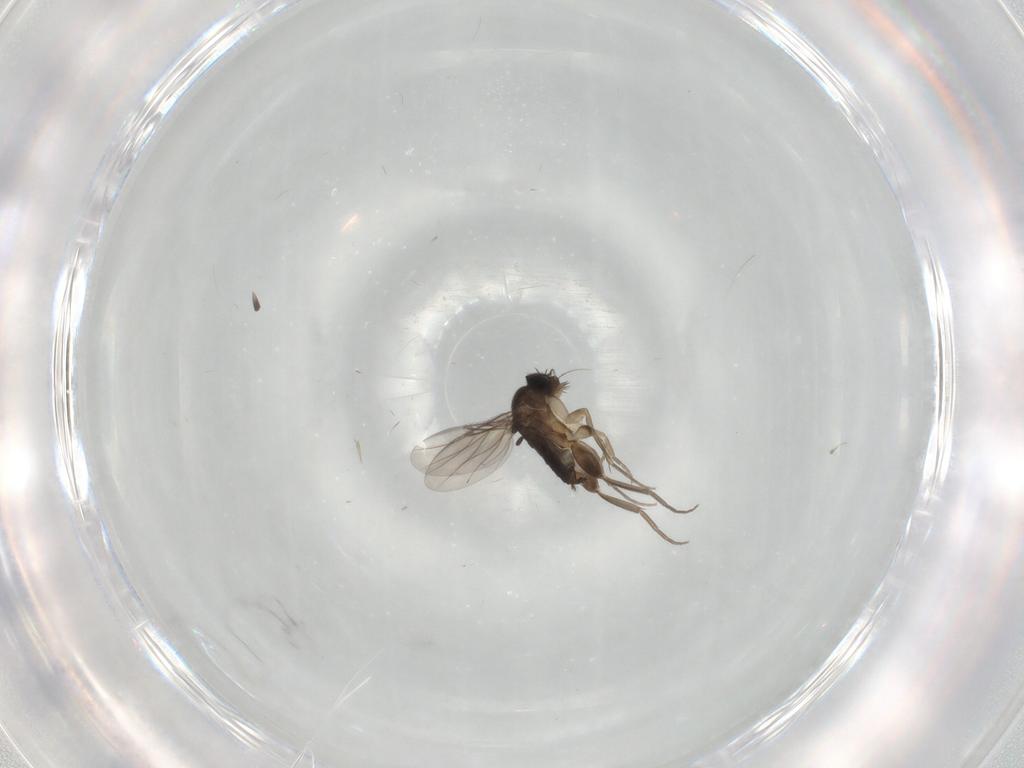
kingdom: Animalia
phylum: Arthropoda
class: Insecta
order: Diptera
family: Phoridae
